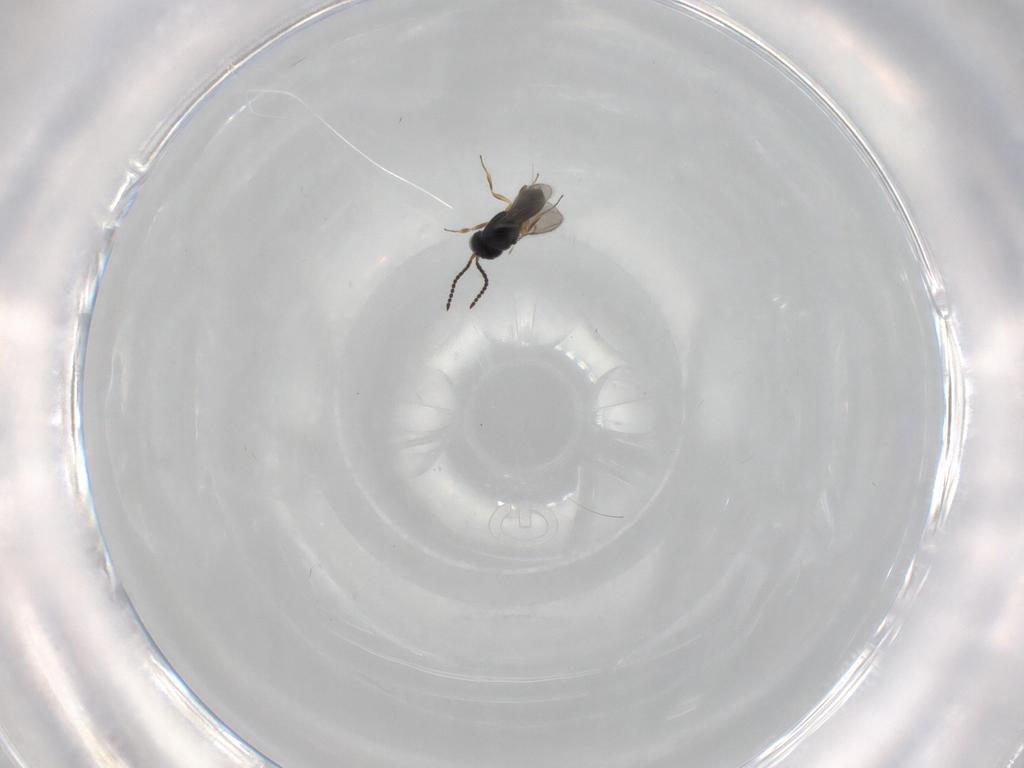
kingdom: Animalia
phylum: Arthropoda
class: Insecta
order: Hymenoptera
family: Scelionidae
